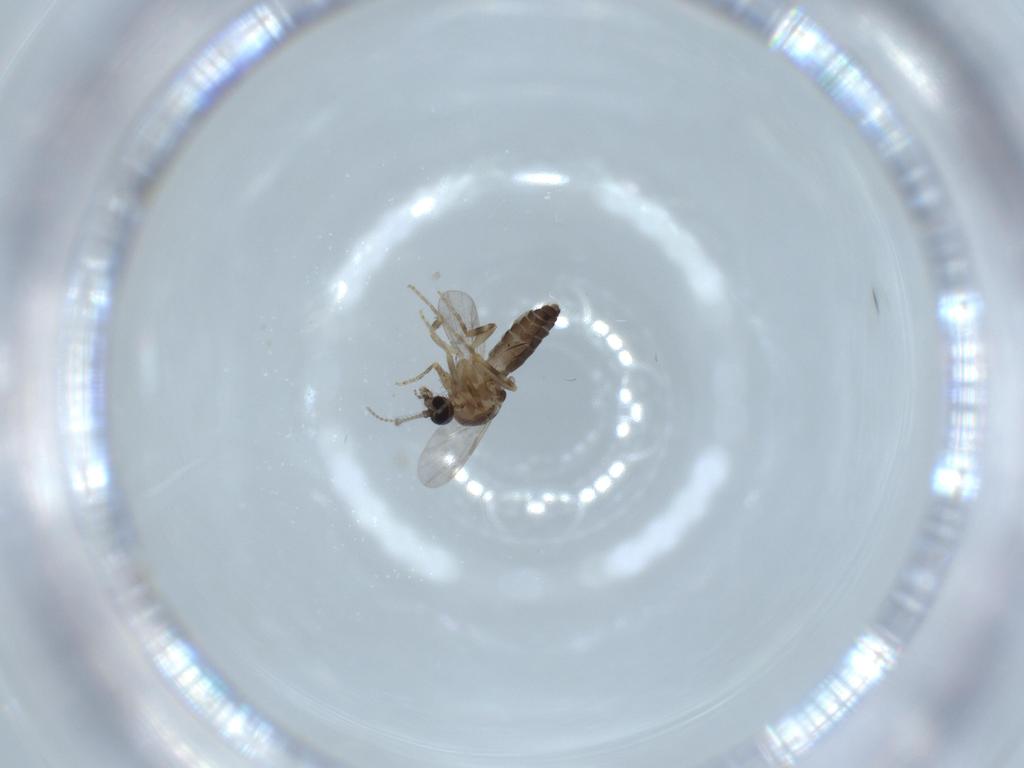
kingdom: Animalia
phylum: Arthropoda
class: Insecta
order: Diptera
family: Ceratopogonidae
